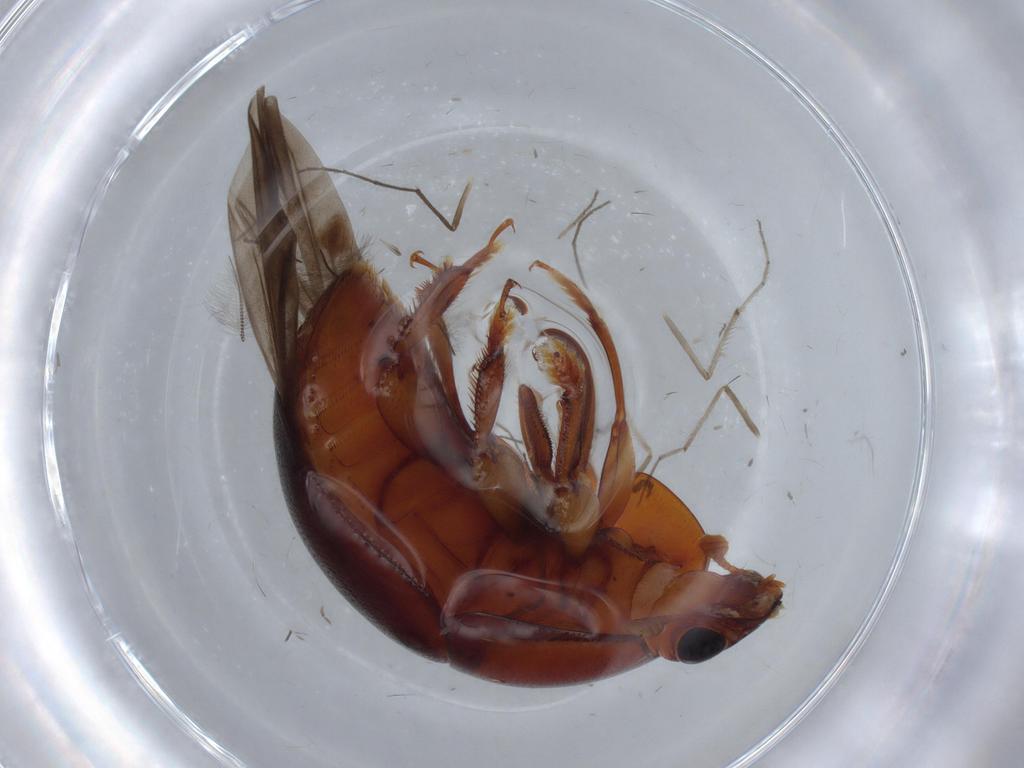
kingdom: Animalia
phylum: Arthropoda
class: Insecta
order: Coleoptera
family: Nitidulidae
